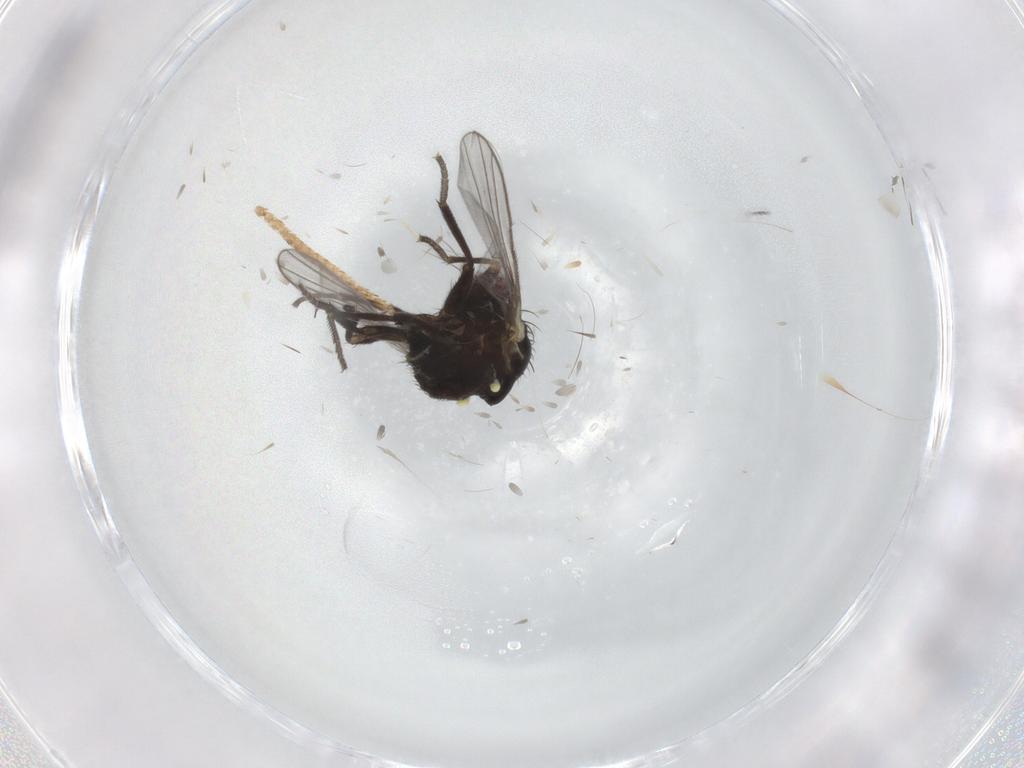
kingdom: Animalia
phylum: Arthropoda
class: Insecta
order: Diptera
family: Agromyzidae
